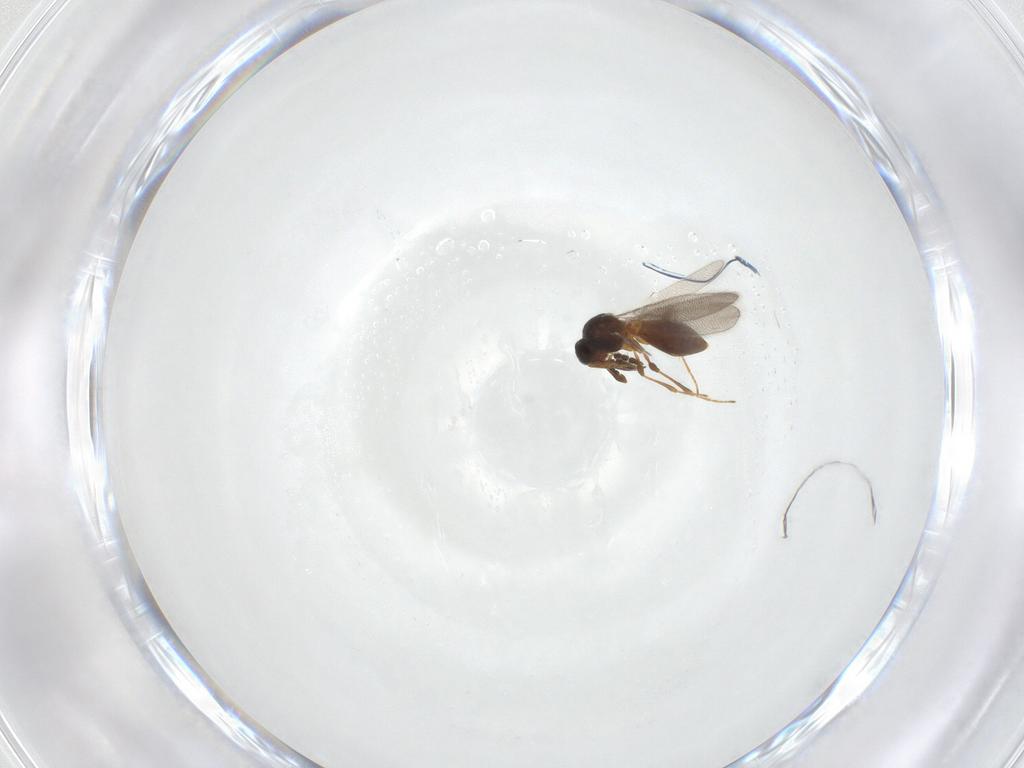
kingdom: Animalia
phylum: Arthropoda
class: Insecta
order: Hymenoptera
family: Platygastridae
